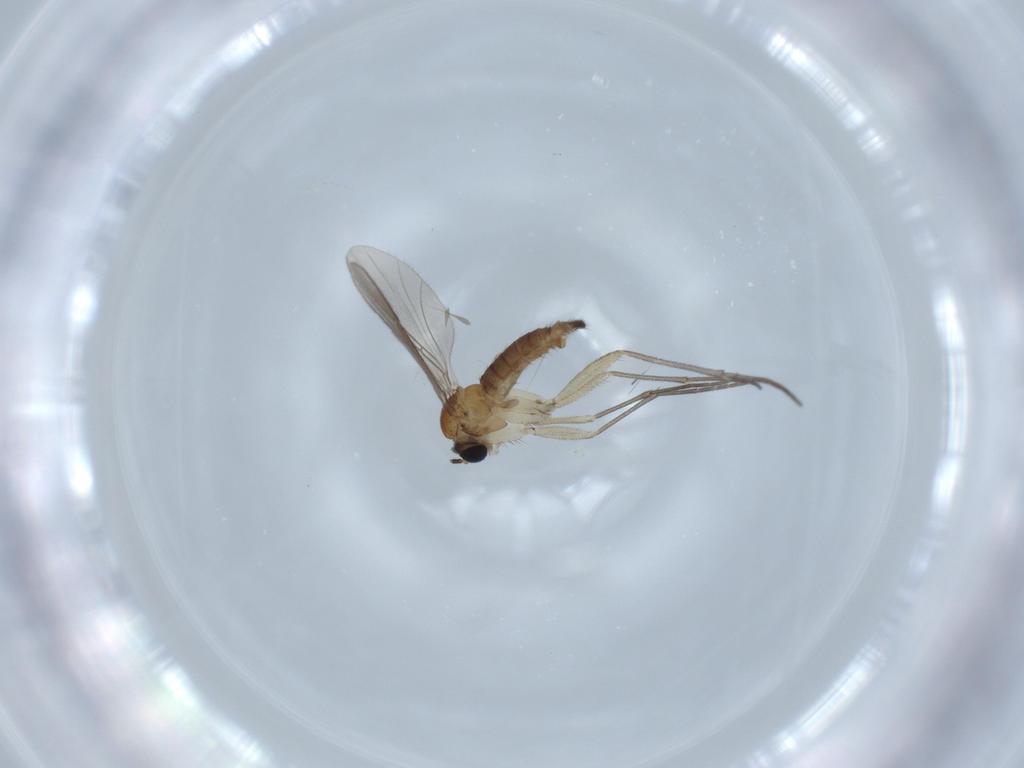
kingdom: Animalia
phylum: Arthropoda
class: Insecta
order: Diptera
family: Sciaridae
